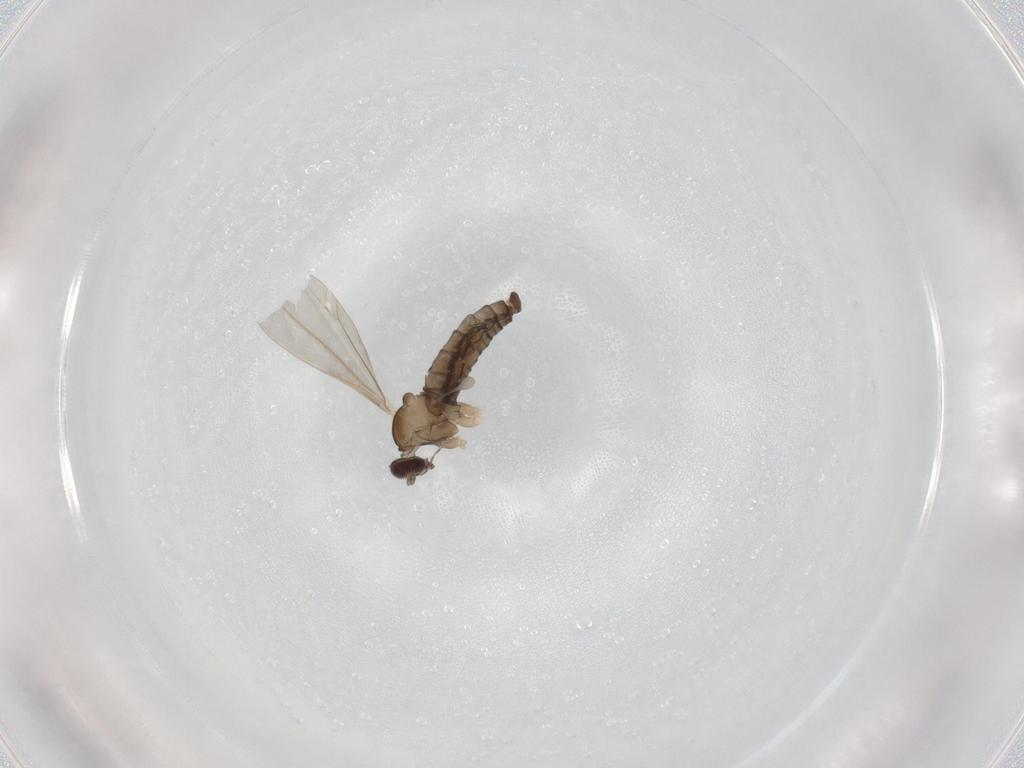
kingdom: Animalia
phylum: Arthropoda
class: Insecta
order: Diptera
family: Cecidomyiidae
